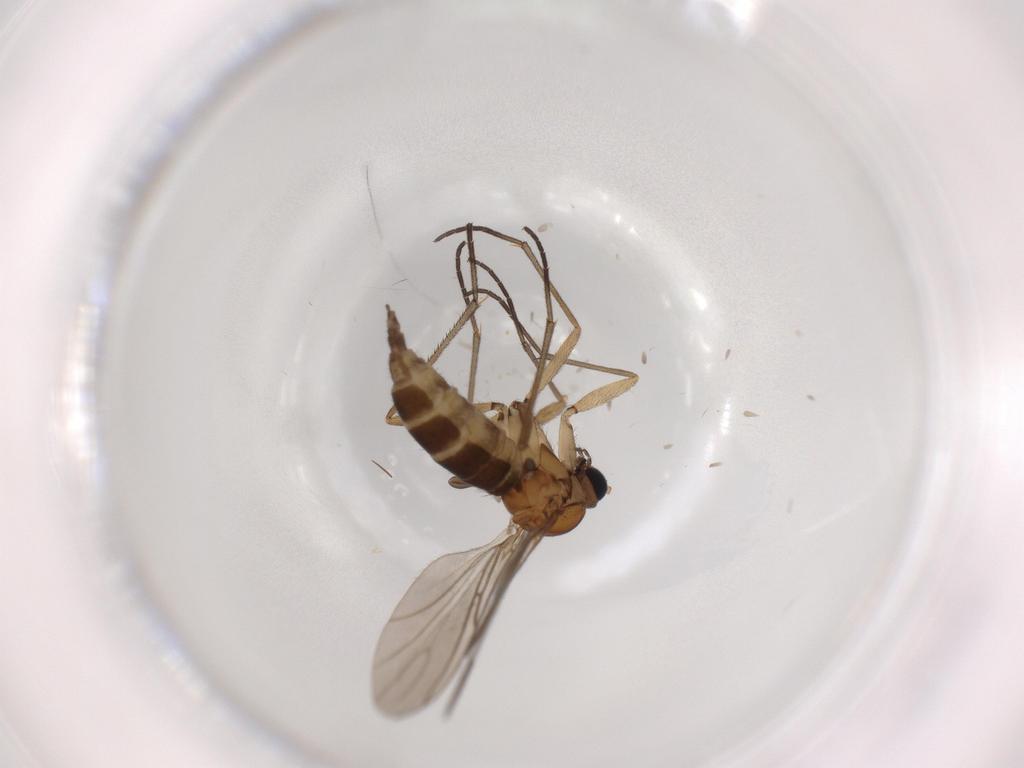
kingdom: Animalia
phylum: Arthropoda
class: Insecta
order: Diptera
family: Sciaridae
